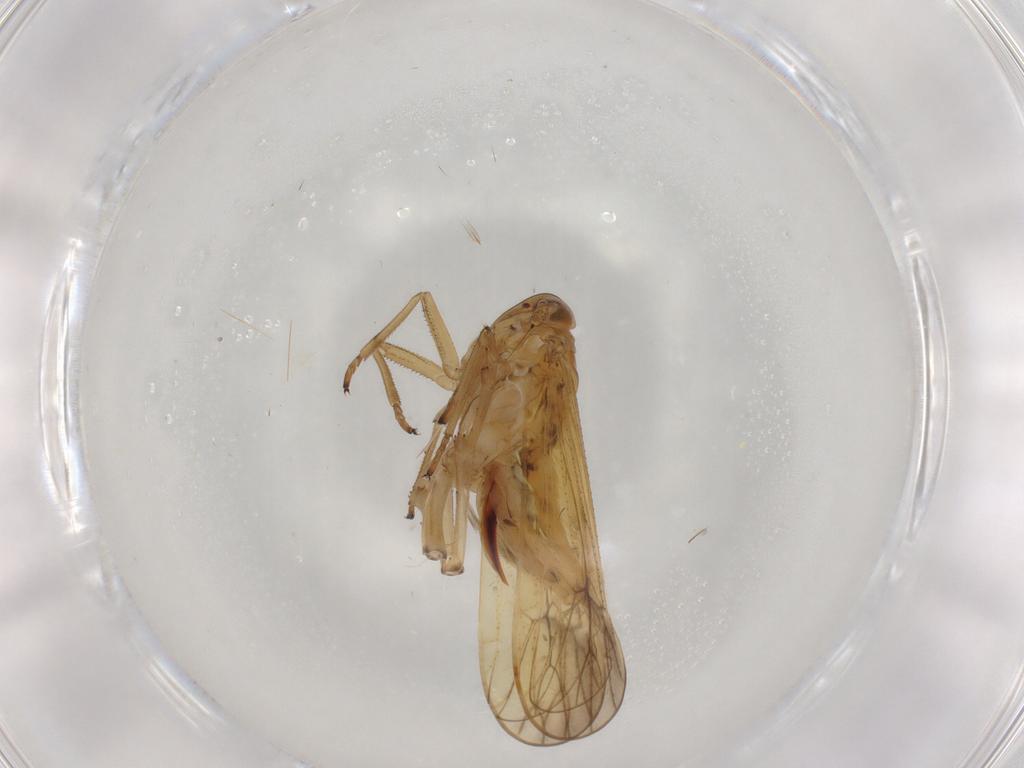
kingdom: Animalia
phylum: Arthropoda
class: Insecta
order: Hemiptera
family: Delphacidae
